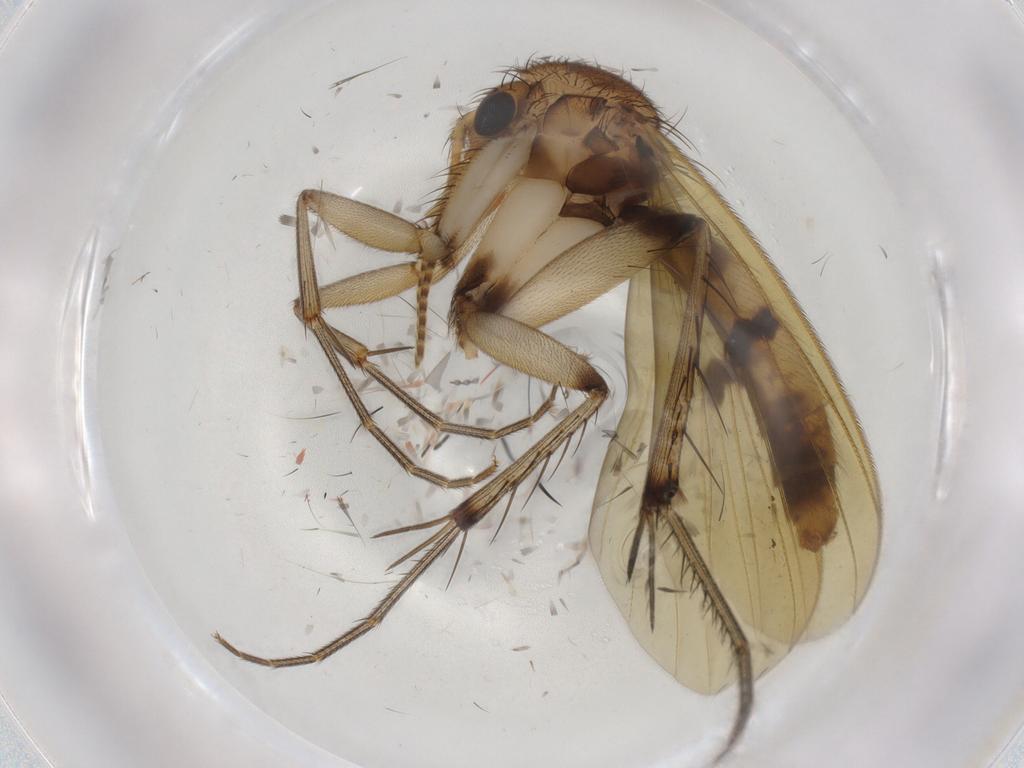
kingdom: Animalia
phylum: Arthropoda
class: Insecta
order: Diptera
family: Mycetophilidae
